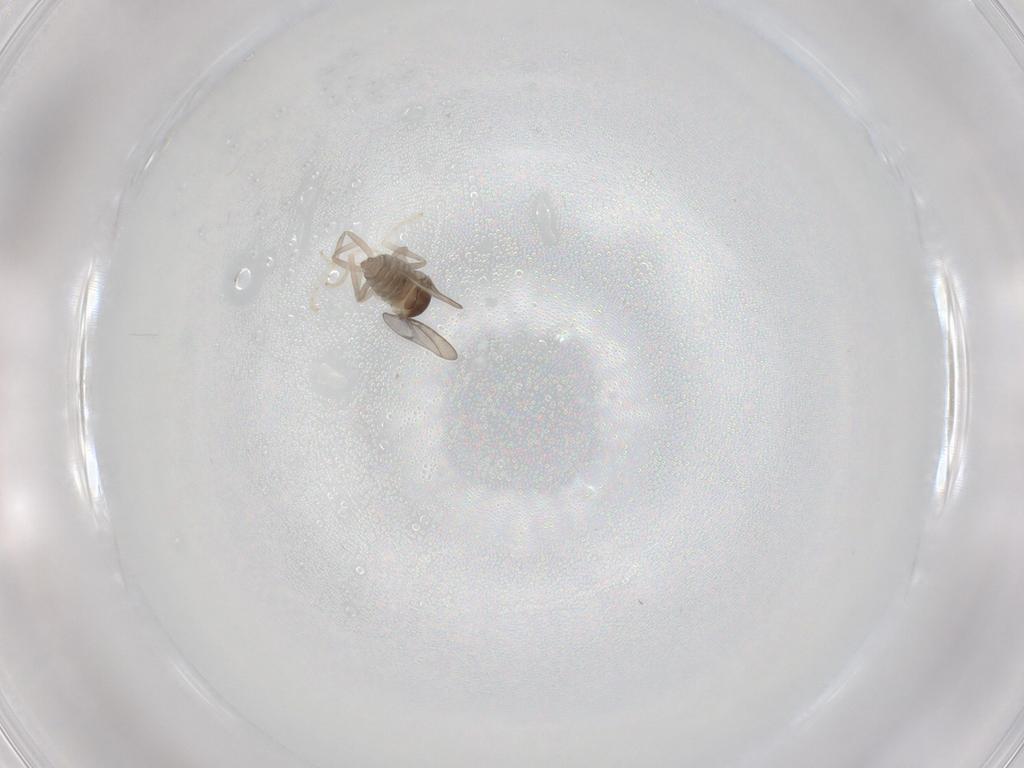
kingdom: Animalia
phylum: Arthropoda
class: Insecta
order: Diptera
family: Cecidomyiidae
